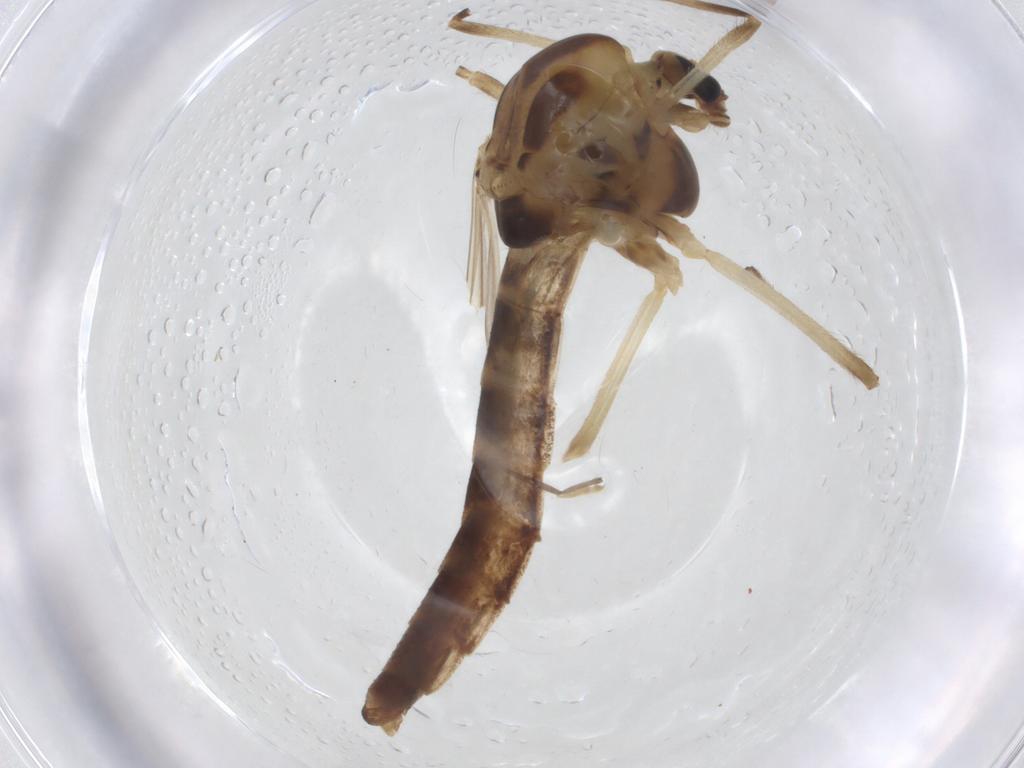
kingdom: Animalia
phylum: Arthropoda
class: Insecta
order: Diptera
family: Chironomidae
